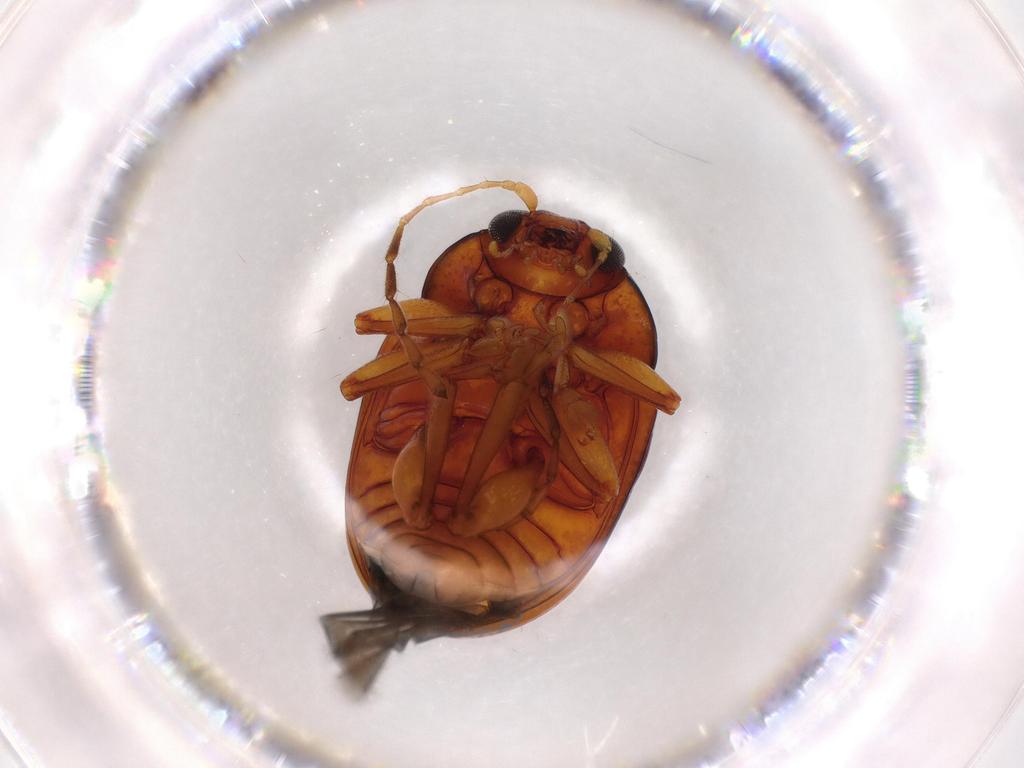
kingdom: Animalia
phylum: Arthropoda
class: Insecta
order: Coleoptera
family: Chrysomelidae
